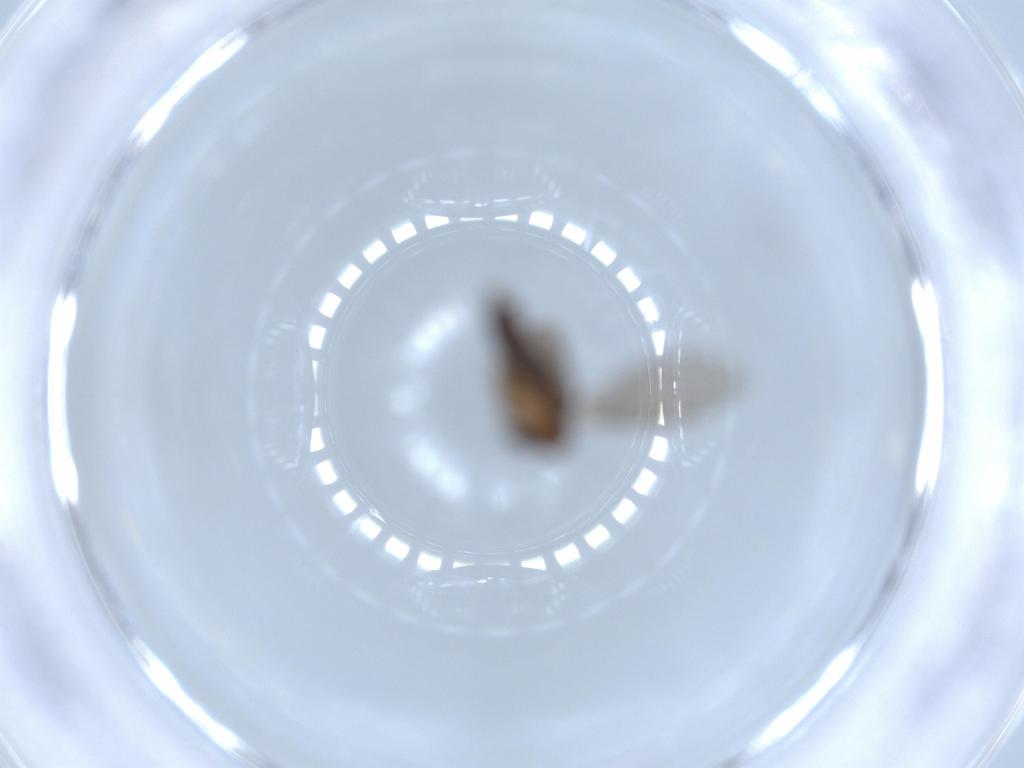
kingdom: Animalia
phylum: Arthropoda
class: Insecta
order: Diptera
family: Psychodidae
